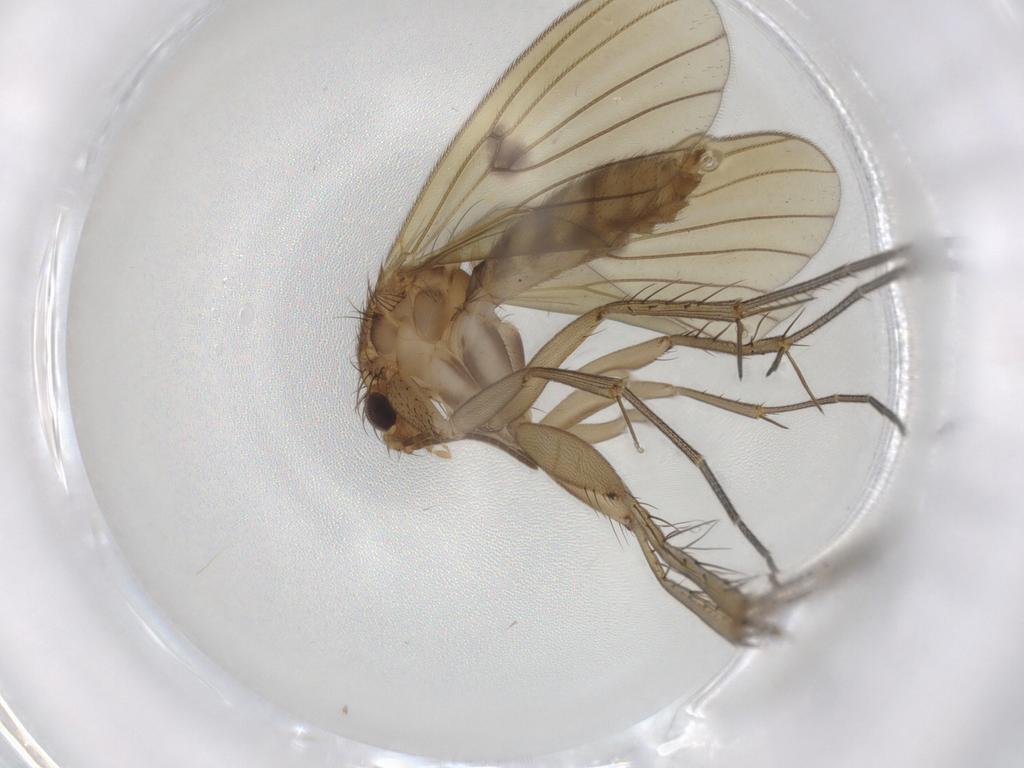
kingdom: Animalia
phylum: Arthropoda
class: Insecta
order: Diptera
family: Mycetophilidae
